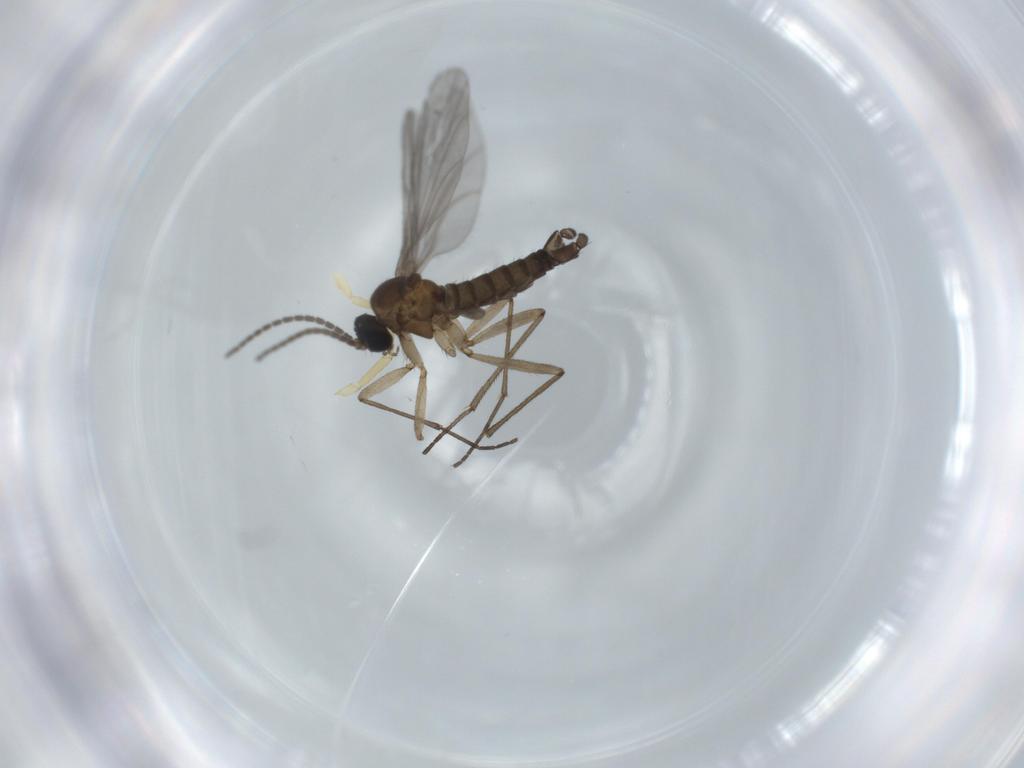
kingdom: Animalia
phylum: Arthropoda
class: Insecta
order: Diptera
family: Sciaridae
